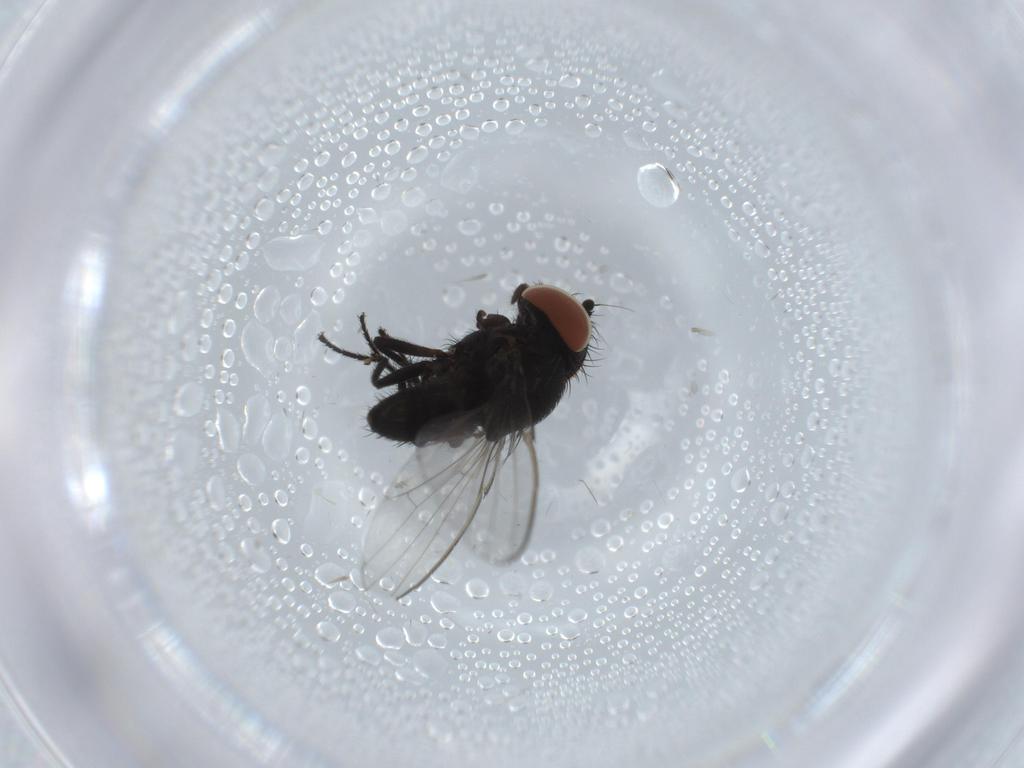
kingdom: Animalia
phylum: Arthropoda
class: Insecta
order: Diptera
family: Milichiidae
